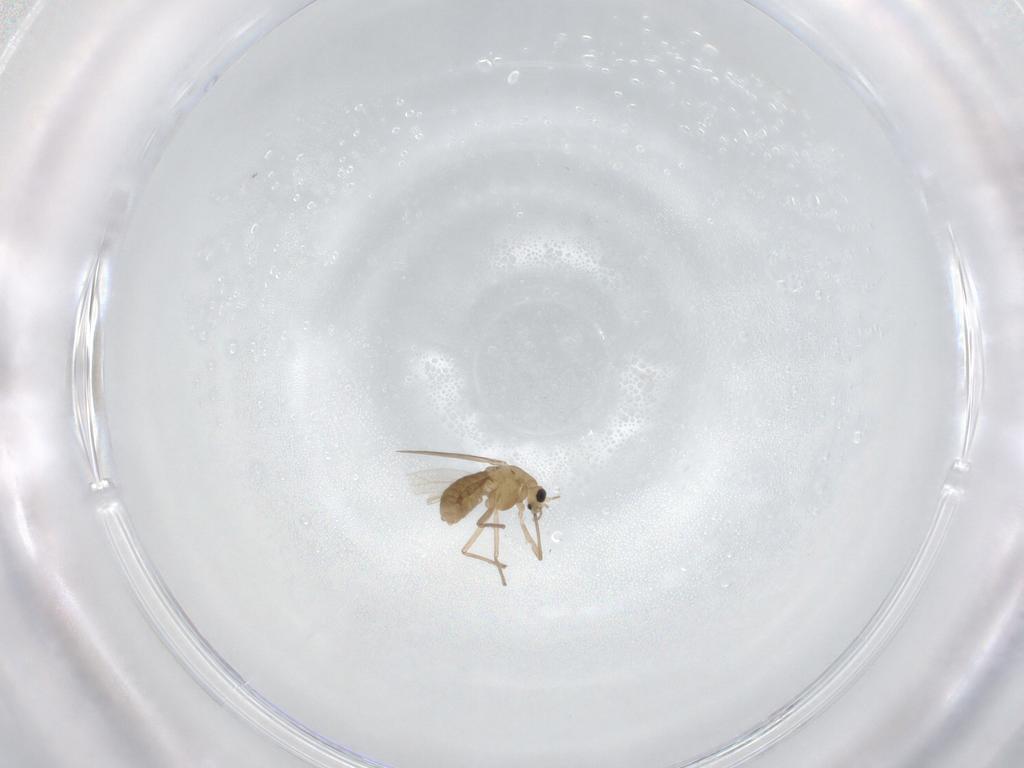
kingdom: Animalia
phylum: Arthropoda
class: Insecta
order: Diptera
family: Chironomidae
